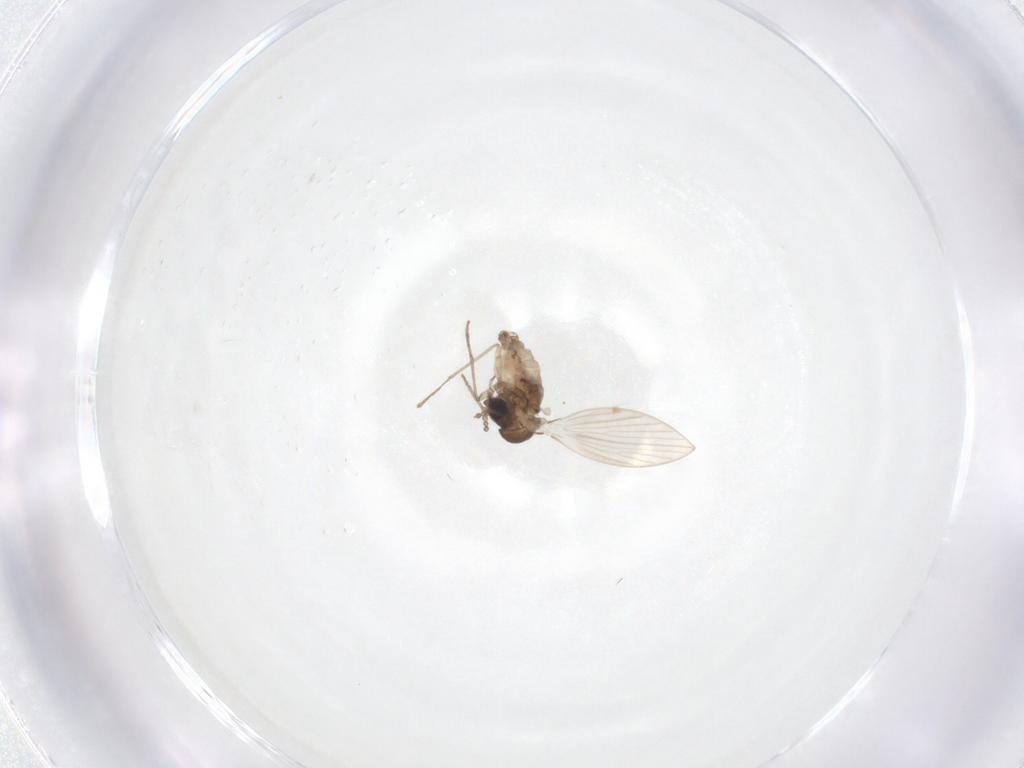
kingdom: Animalia
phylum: Arthropoda
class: Insecta
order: Diptera
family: Psychodidae
